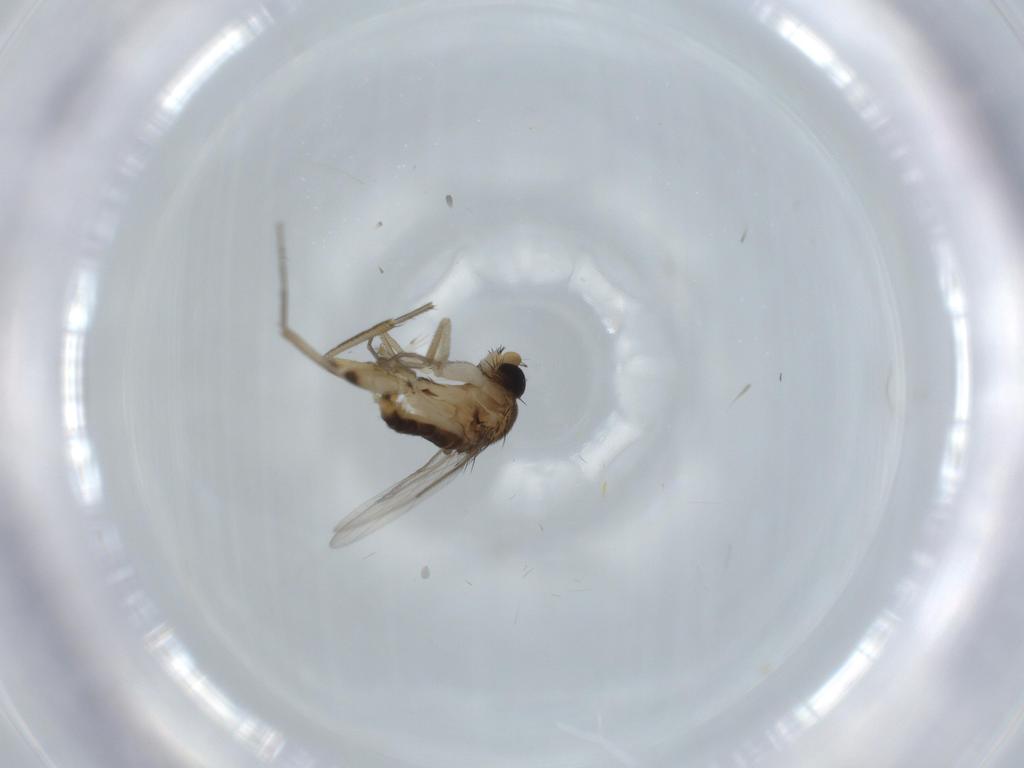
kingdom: Animalia
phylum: Arthropoda
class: Insecta
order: Diptera
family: Phoridae
